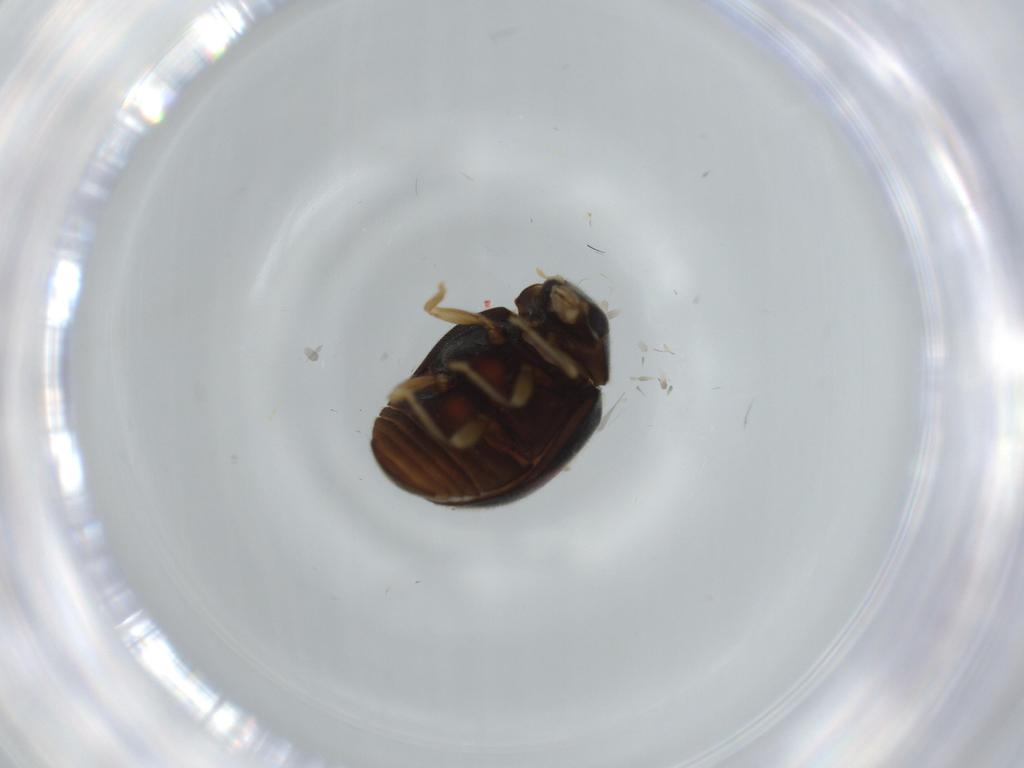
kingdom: Animalia
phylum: Arthropoda
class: Insecta
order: Coleoptera
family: Coccinellidae
